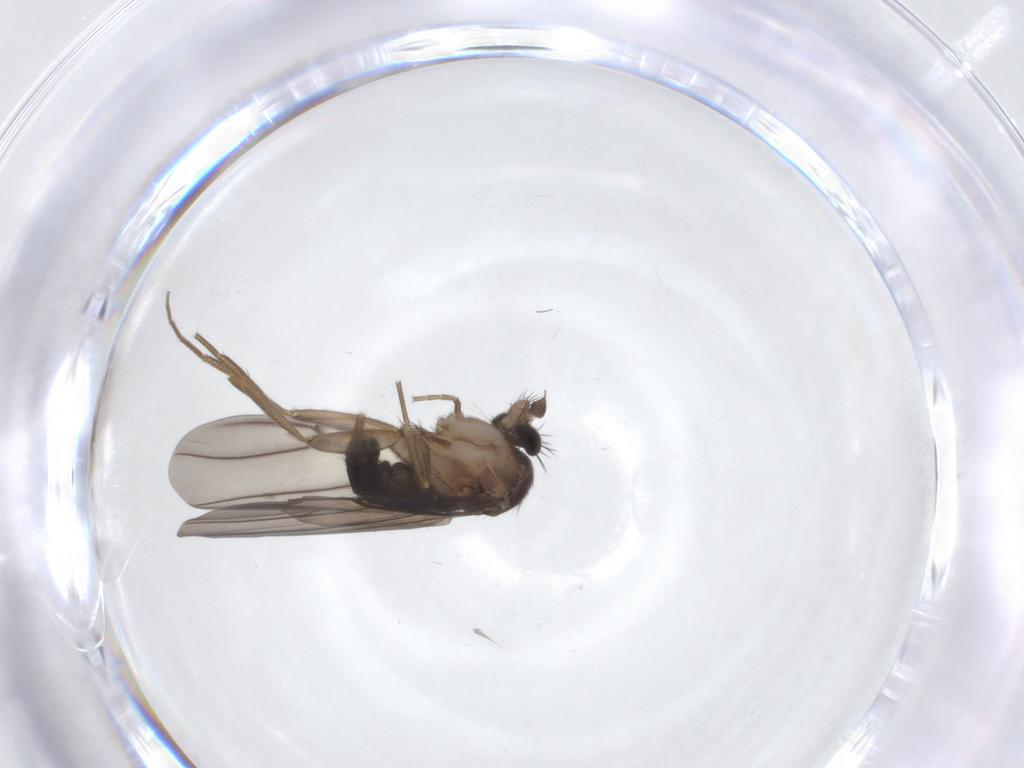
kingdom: Animalia
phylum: Arthropoda
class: Insecta
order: Diptera
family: Phoridae
